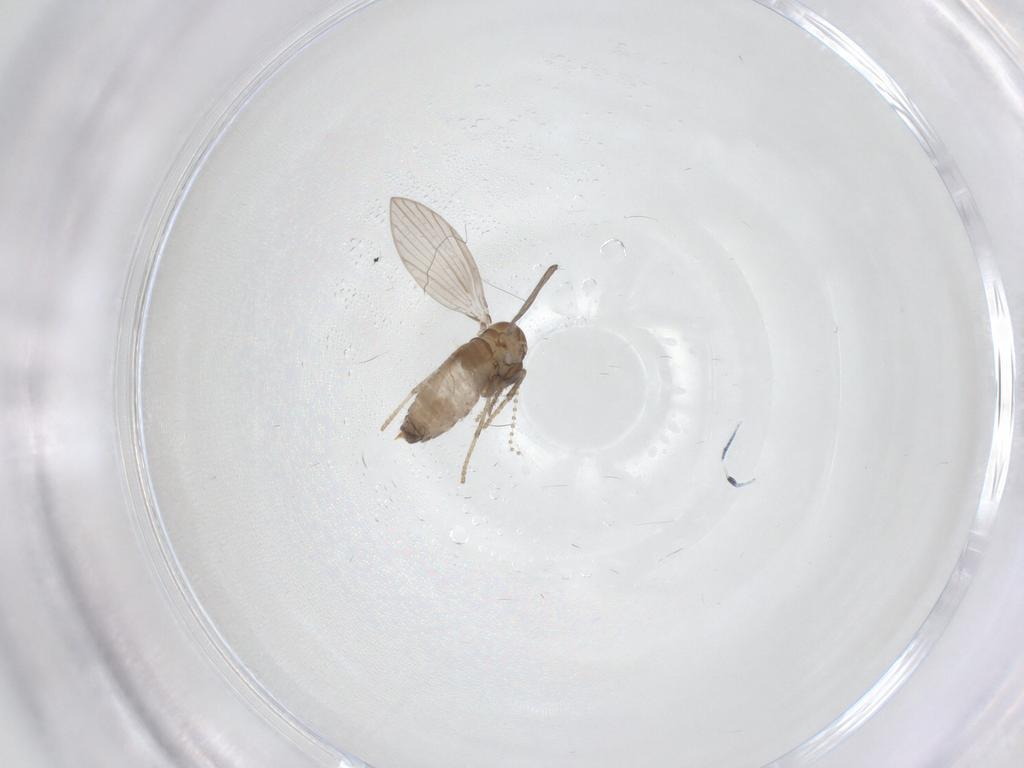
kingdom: Animalia
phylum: Arthropoda
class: Insecta
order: Diptera
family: Psychodidae
